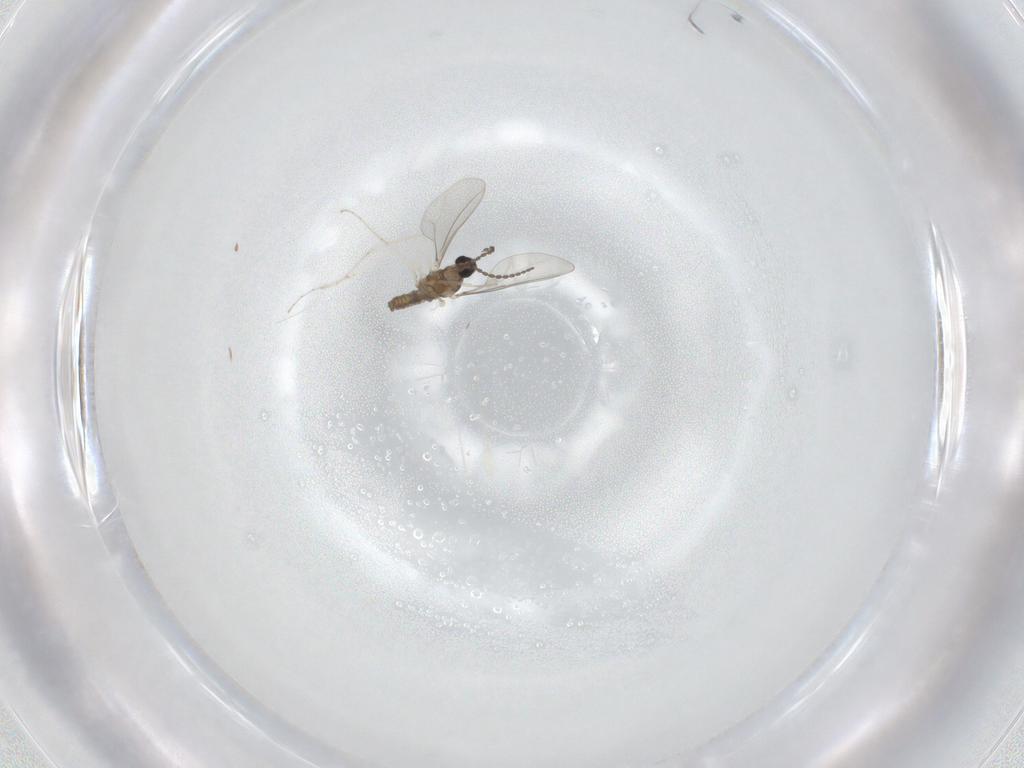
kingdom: Animalia
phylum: Arthropoda
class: Insecta
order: Diptera
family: Cecidomyiidae
